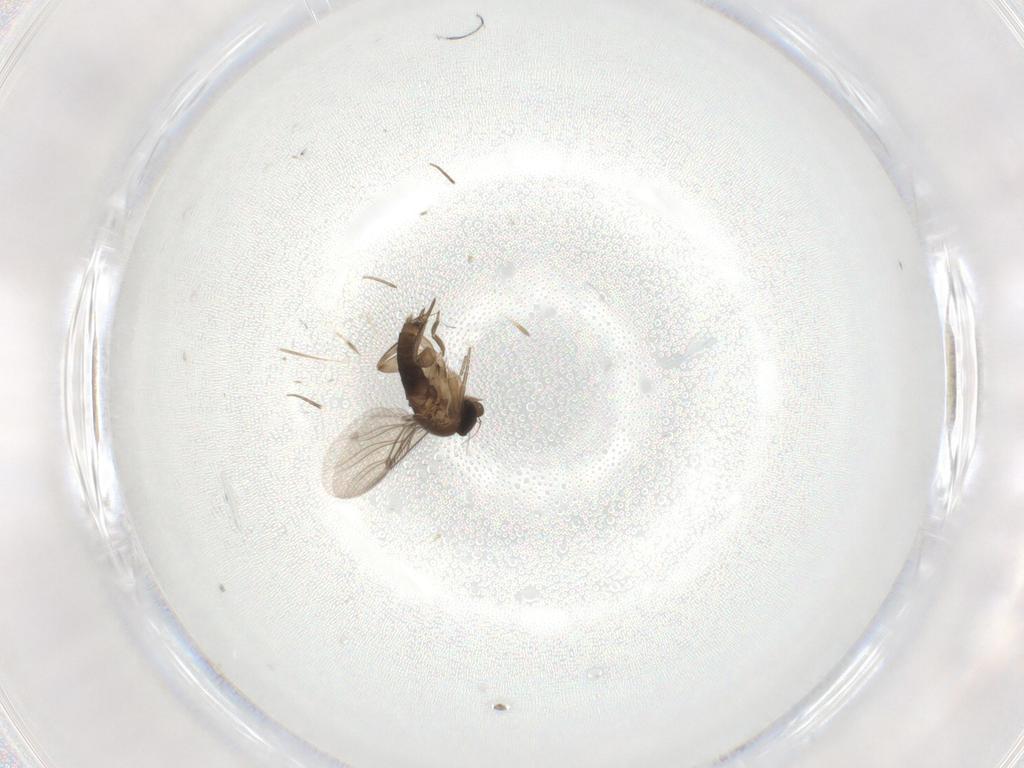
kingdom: Animalia
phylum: Arthropoda
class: Insecta
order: Diptera
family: Phoridae
